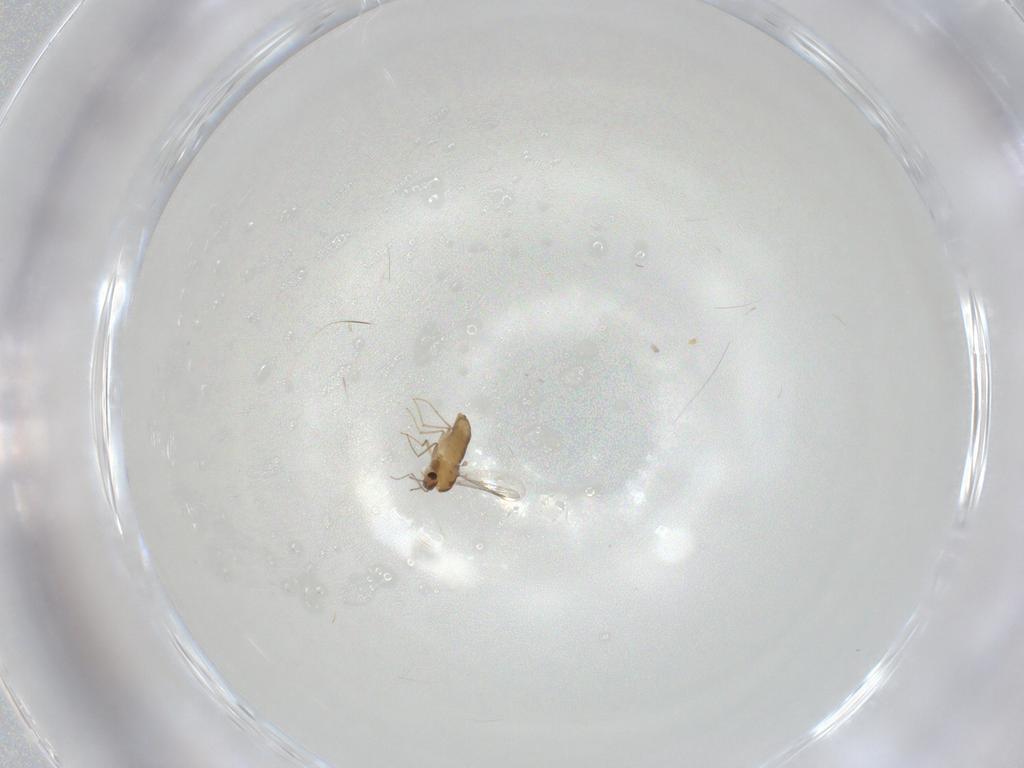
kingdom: Animalia
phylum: Arthropoda
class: Insecta
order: Diptera
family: Chironomidae
